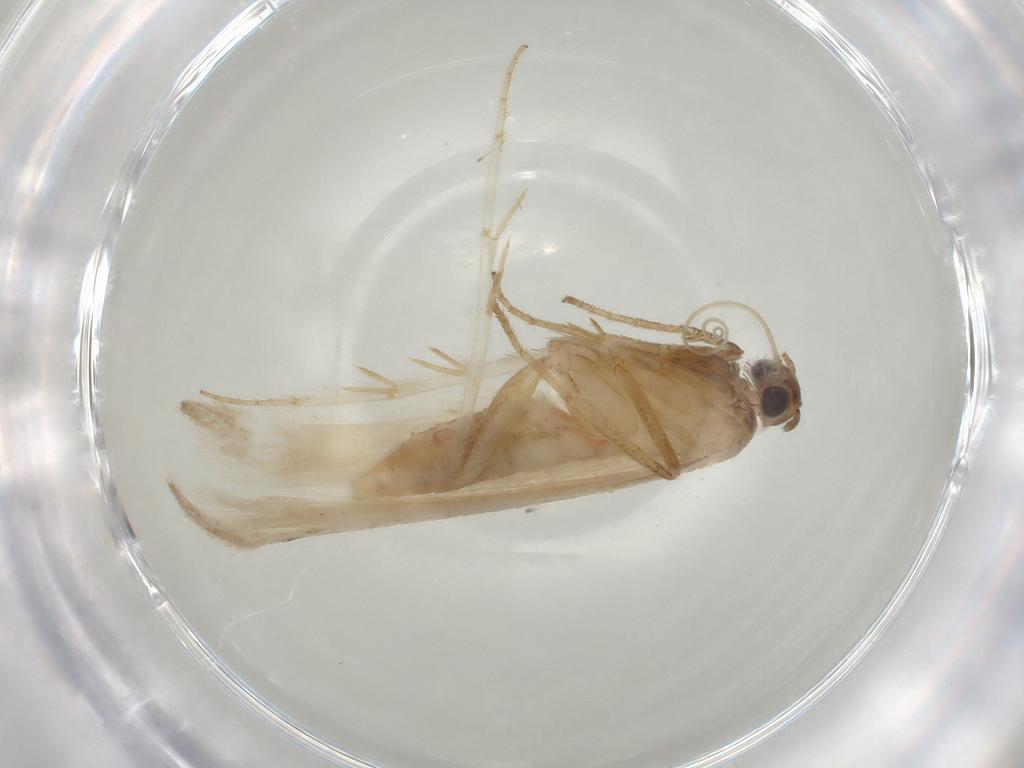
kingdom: Animalia
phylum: Arthropoda
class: Insecta
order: Lepidoptera
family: Gelechiidae
